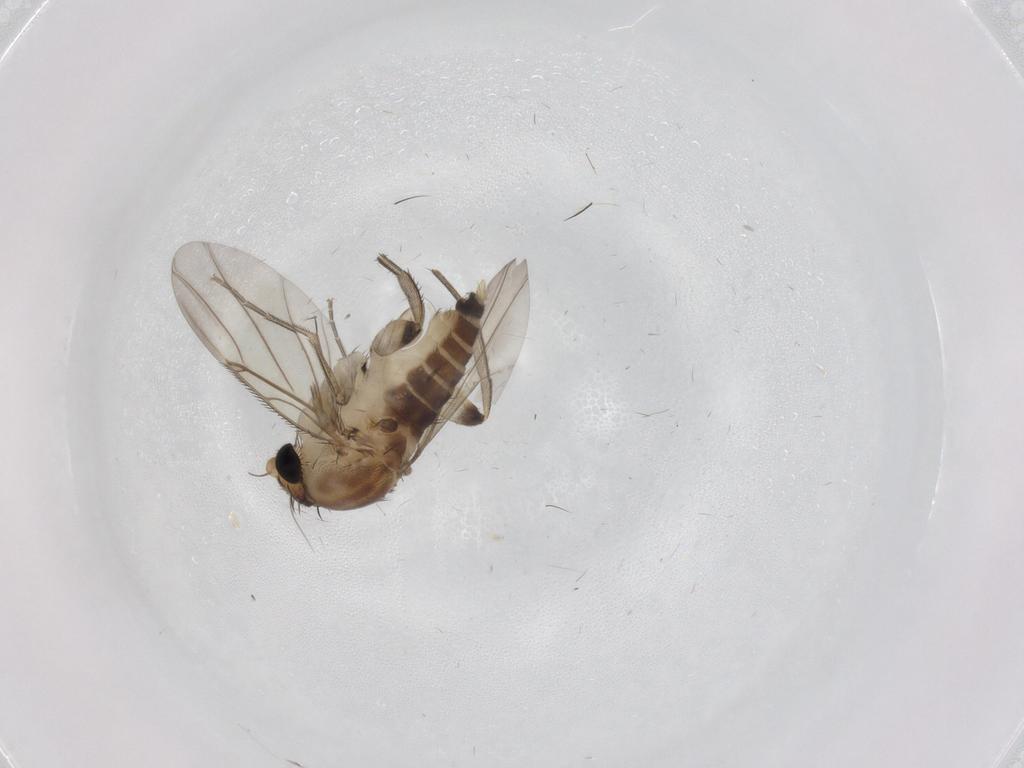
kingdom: Animalia
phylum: Arthropoda
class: Insecta
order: Diptera
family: Phoridae
